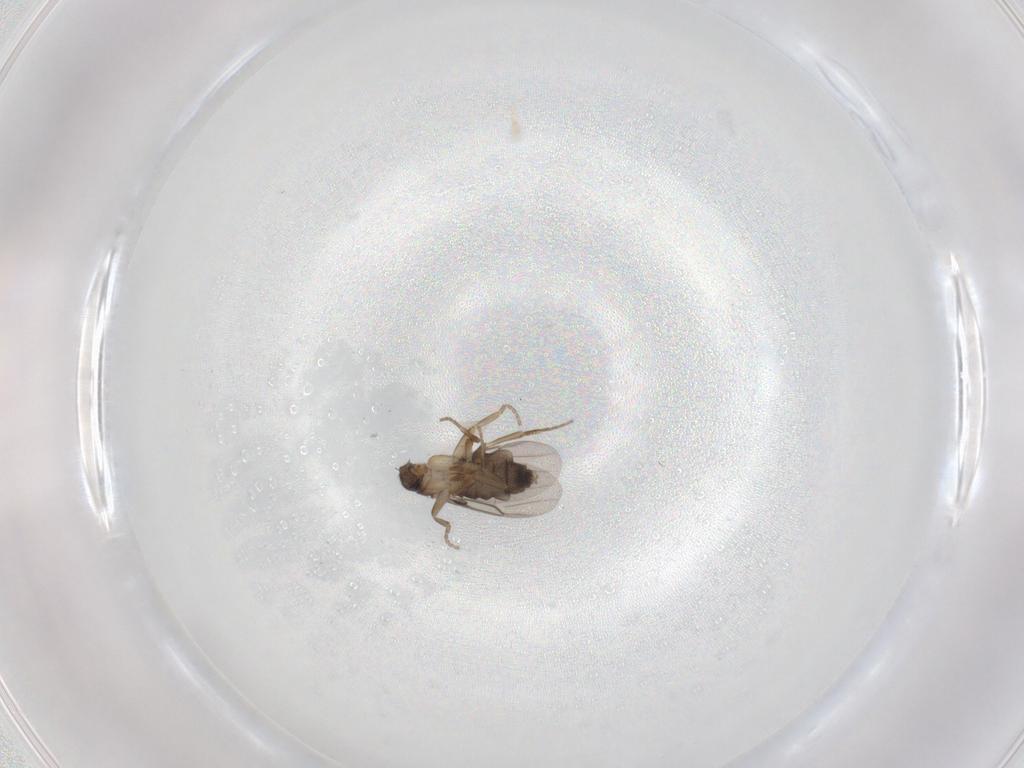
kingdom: Animalia
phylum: Arthropoda
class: Insecta
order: Diptera
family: Phoridae
